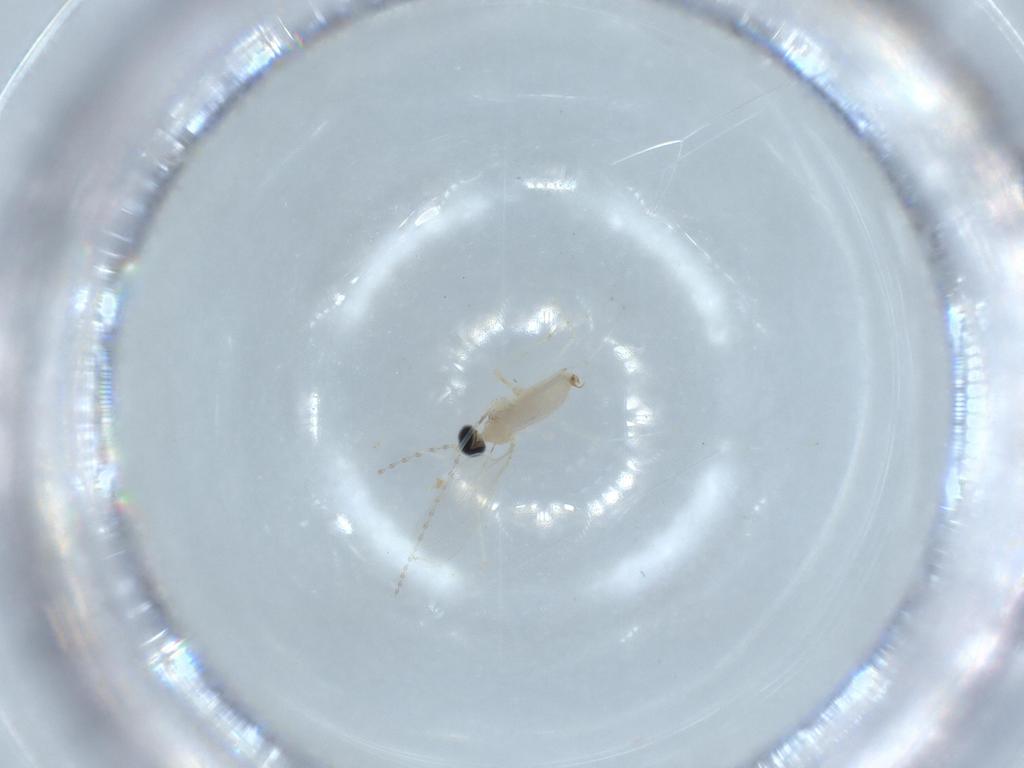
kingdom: Animalia
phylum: Arthropoda
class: Insecta
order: Diptera
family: Cecidomyiidae
